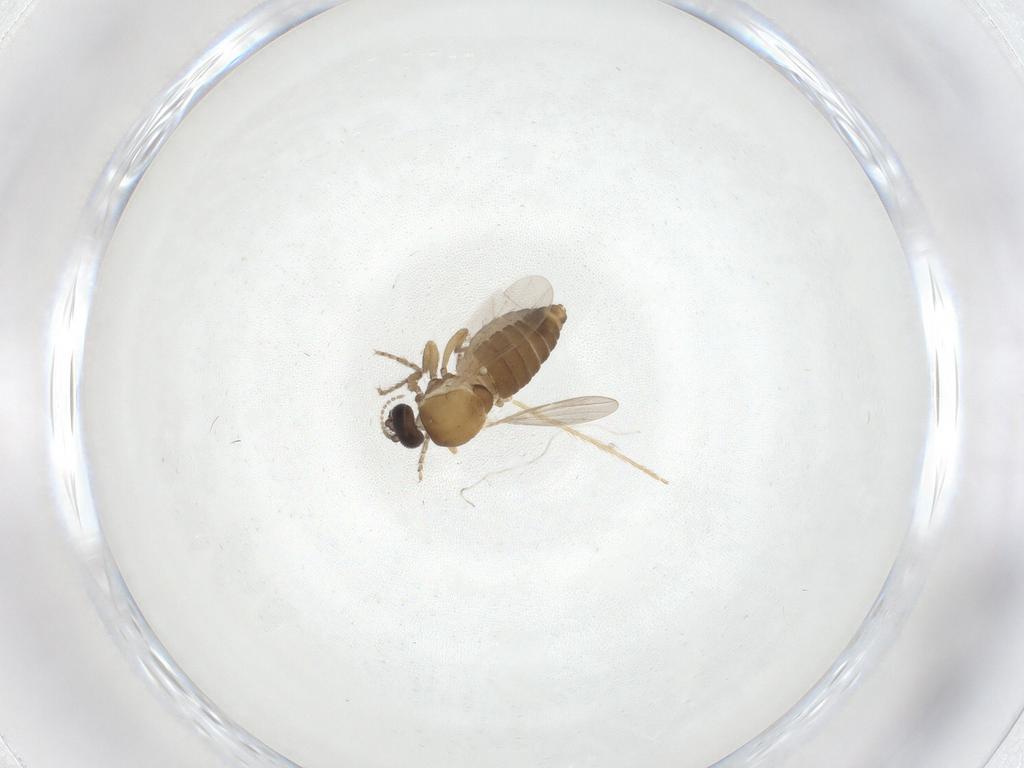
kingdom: Animalia
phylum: Arthropoda
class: Insecta
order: Diptera
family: Ceratopogonidae
